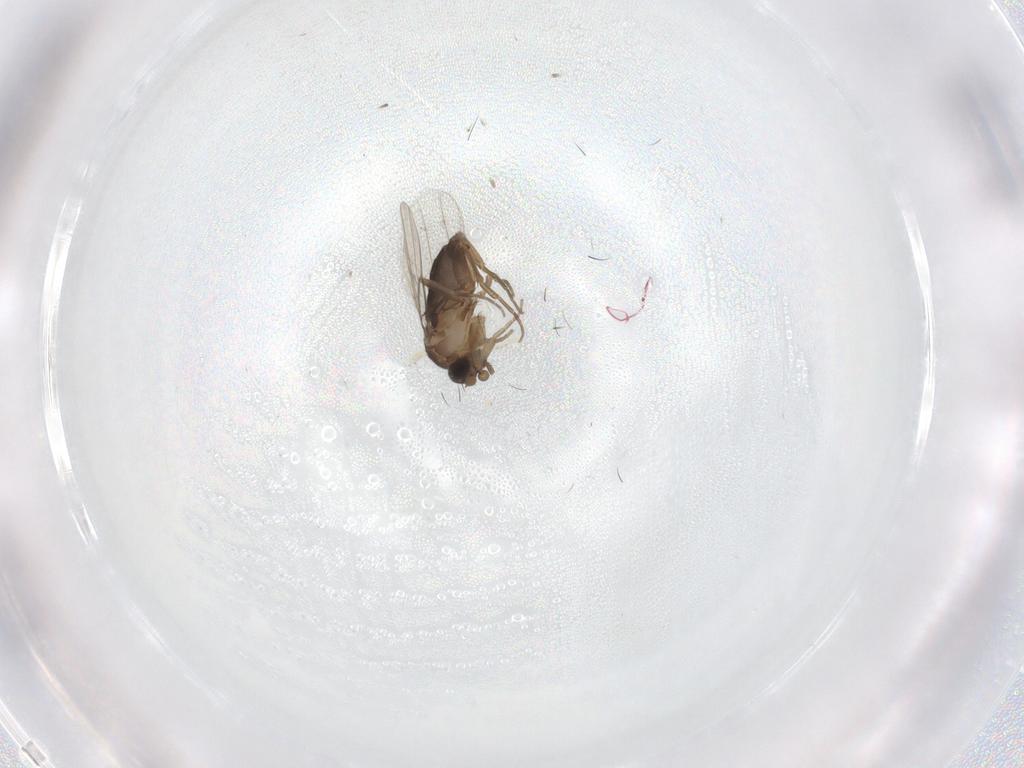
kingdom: Animalia
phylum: Arthropoda
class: Insecta
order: Diptera
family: Phoridae
